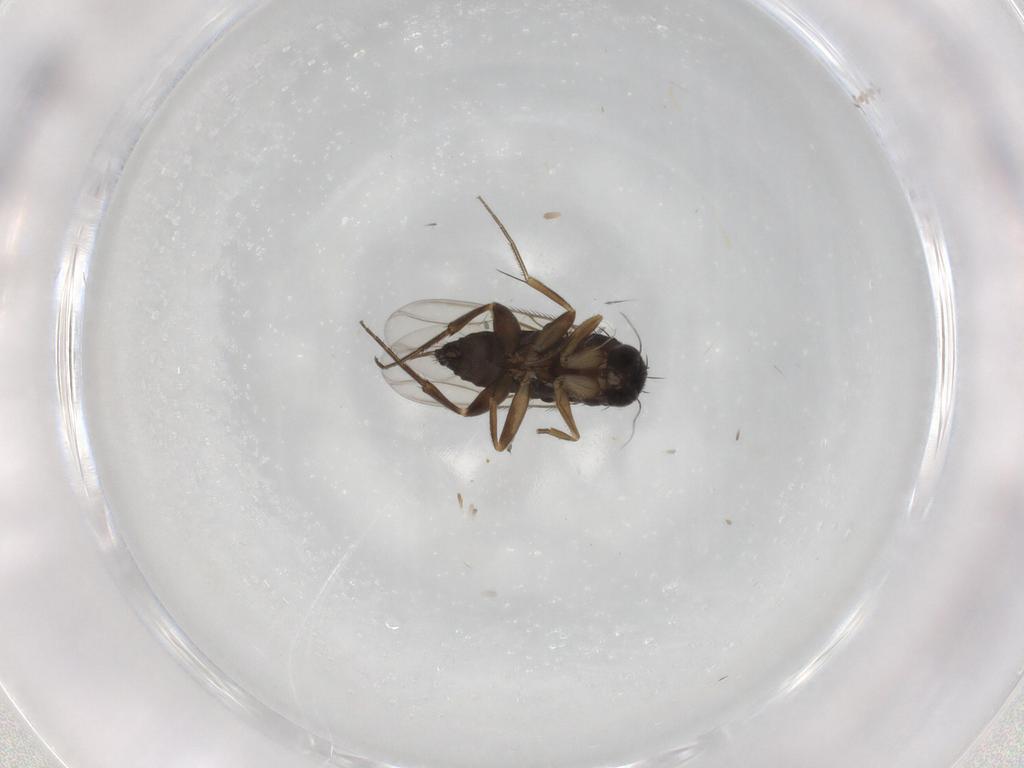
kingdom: Animalia
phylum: Arthropoda
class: Insecta
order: Diptera
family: Phoridae
